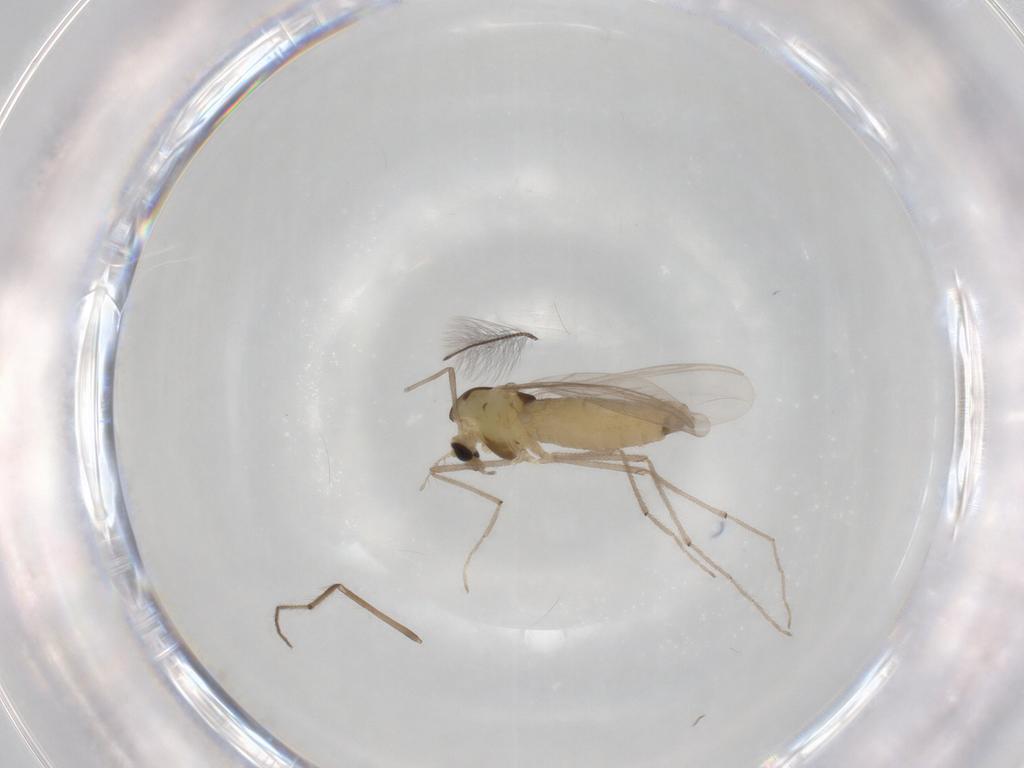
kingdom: Animalia
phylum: Arthropoda
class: Insecta
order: Diptera
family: Chironomidae
